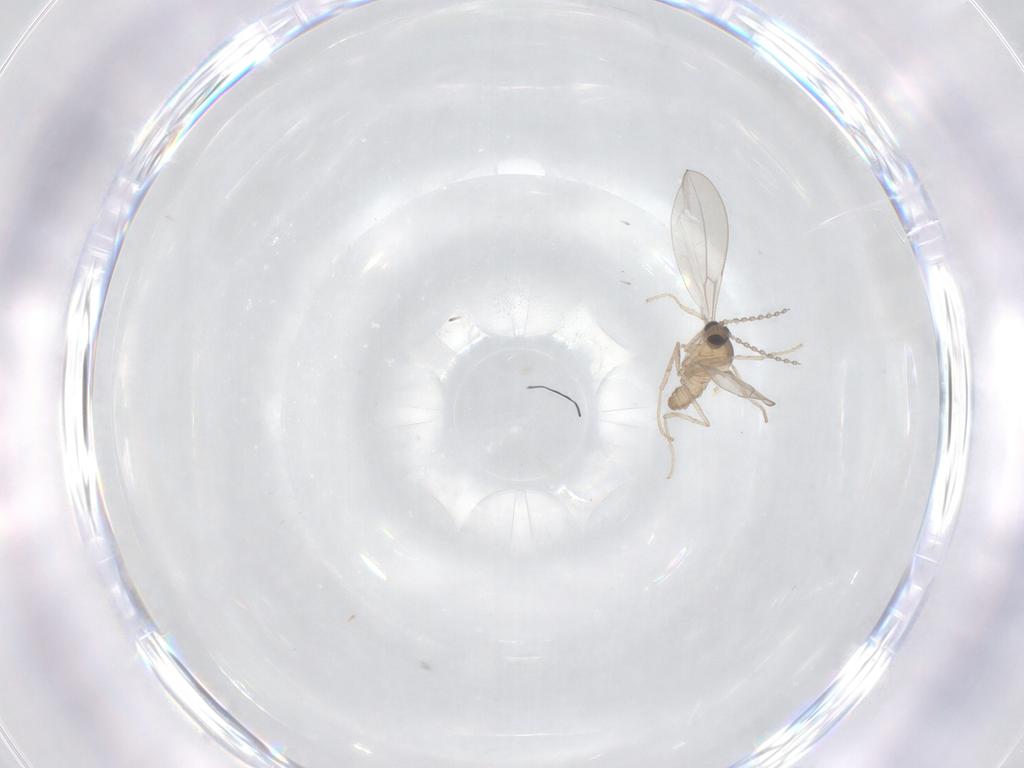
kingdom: Animalia
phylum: Arthropoda
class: Insecta
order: Diptera
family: Cecidomyiidae
